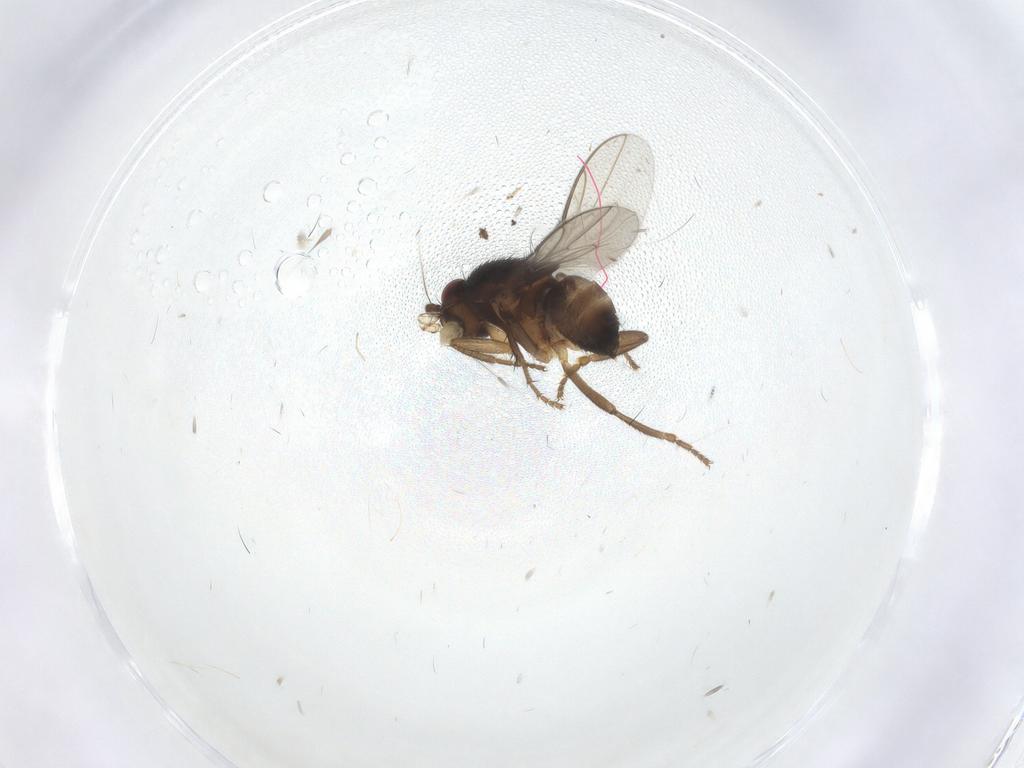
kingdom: Animalia
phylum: Arthropoda
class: Insecta
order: Diptera
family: Sphaeroceridae
